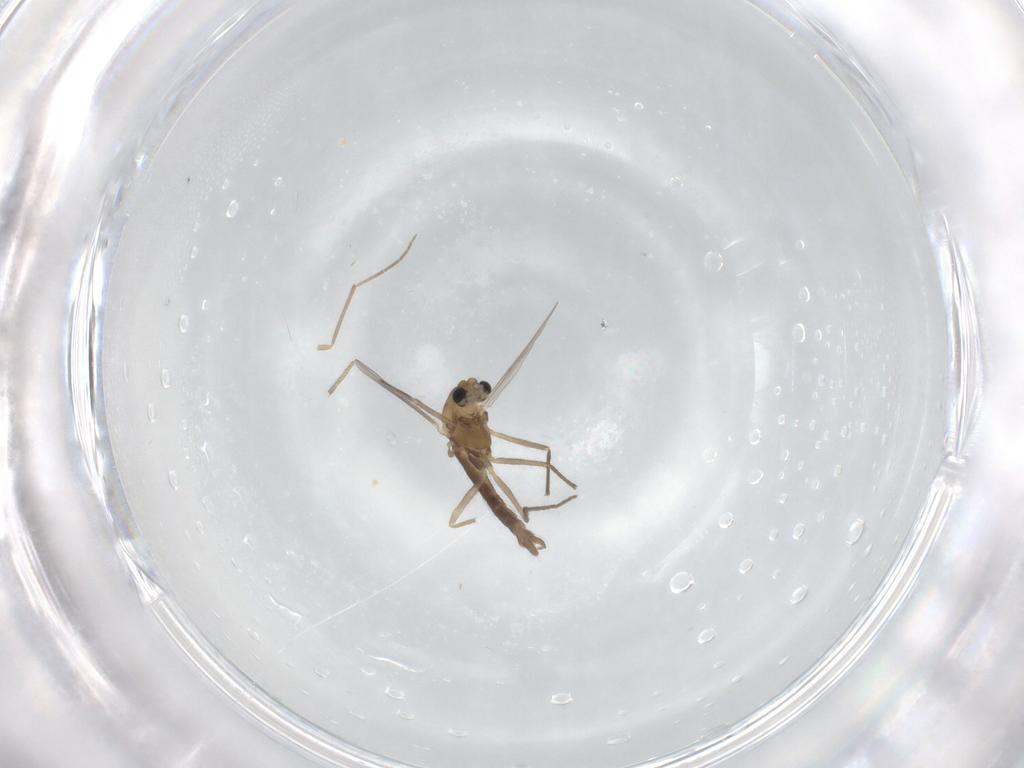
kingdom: Animalia
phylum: Arthropoda
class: Insecta
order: Diptera
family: Chironomidae
